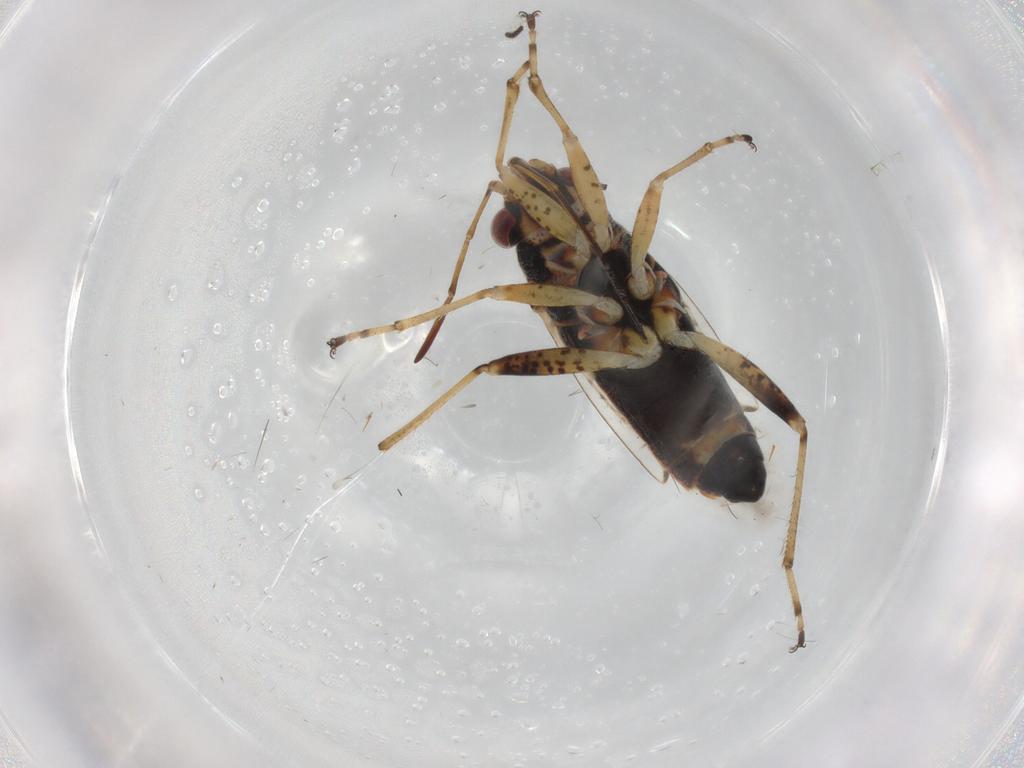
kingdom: Animalia
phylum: Arthropoda
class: Insecta
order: Hemiptera
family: Lygaeidae
